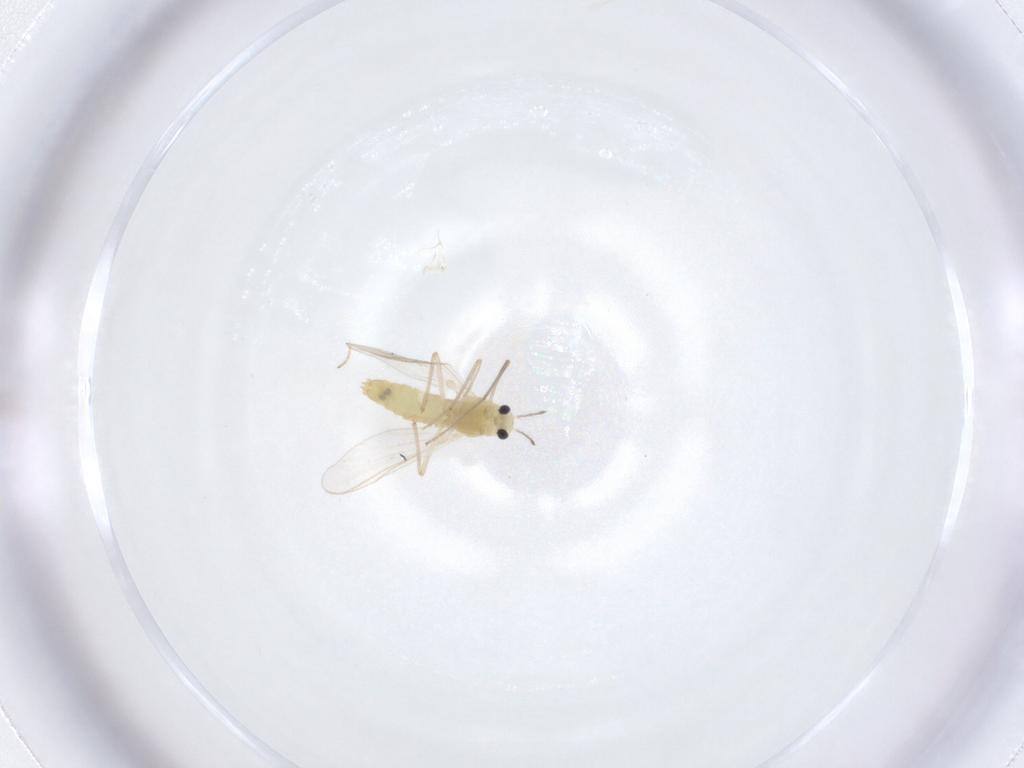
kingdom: Animalia
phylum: Arthropoda
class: Insecta
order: Diptera
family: Chironomidae
